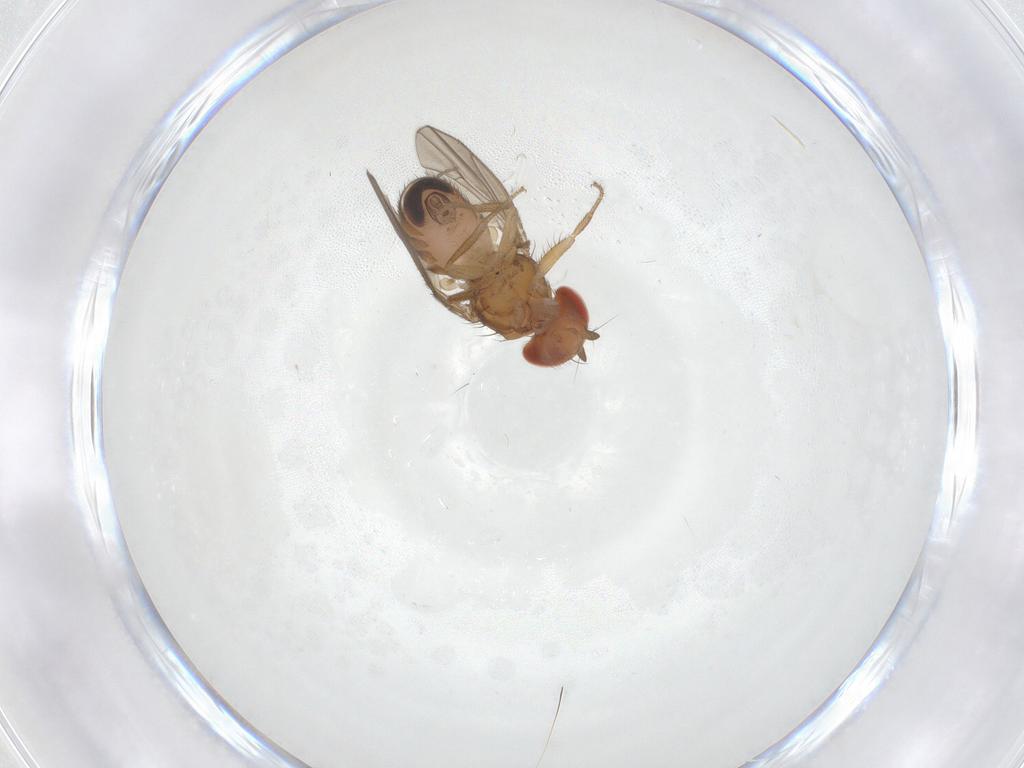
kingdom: Animalia
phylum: Arthropoda
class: Insecta
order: Diptera
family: Drosophilidae
